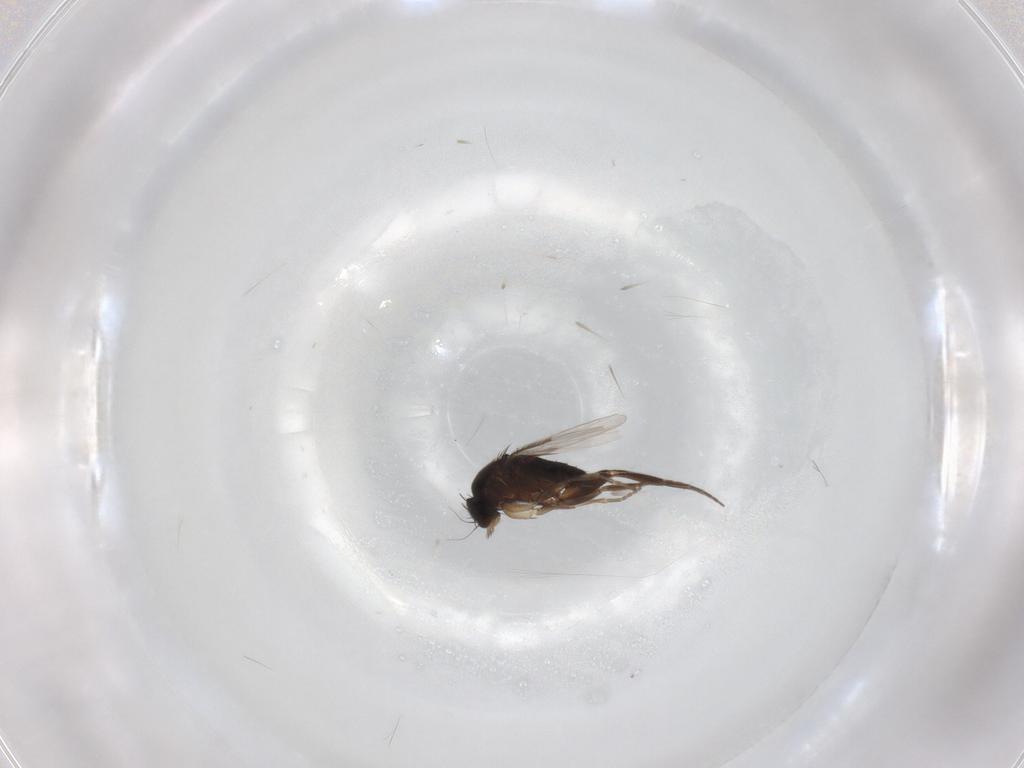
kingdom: Animalia
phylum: Arthropoda
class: Insecta
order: Diptera
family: Phoridae
